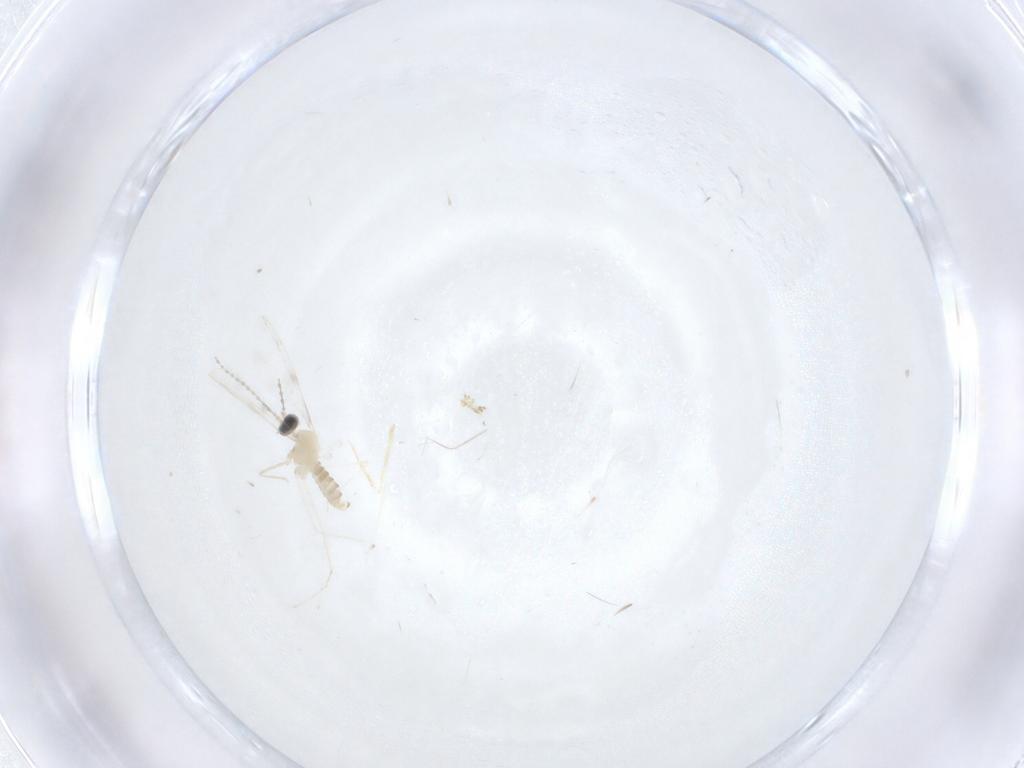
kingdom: Animalia
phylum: Arthropoda
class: Insecta
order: Diptera
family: Cecidomyiidae
